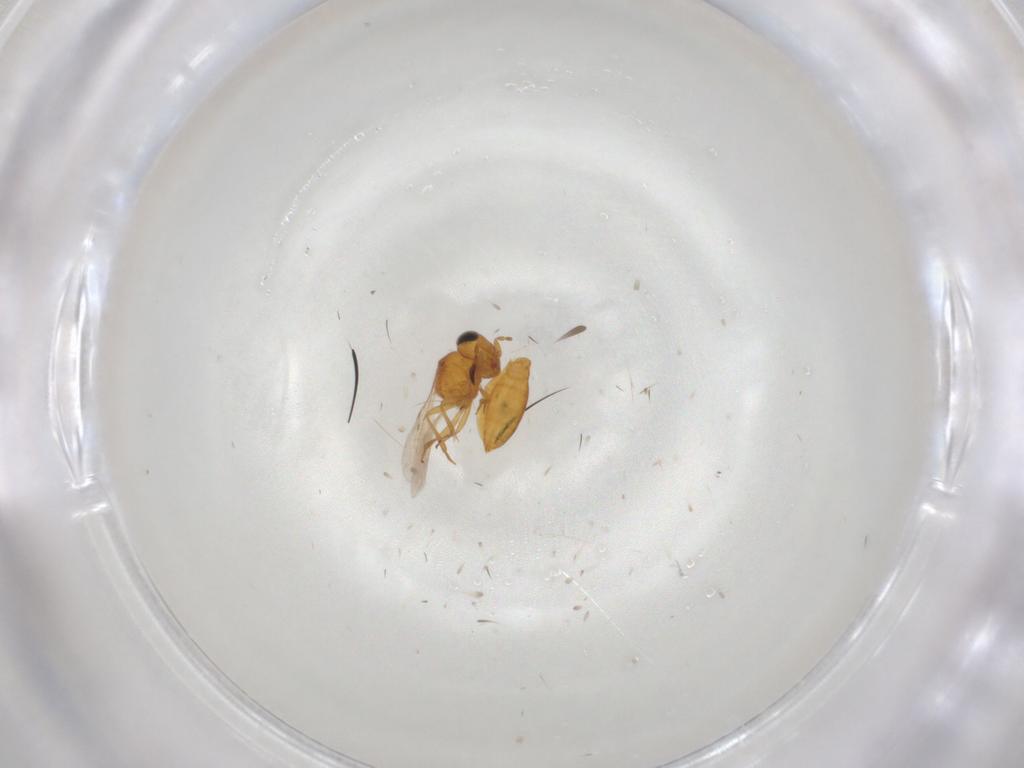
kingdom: Animalia
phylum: Arthropoda
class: Insecta
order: Hymenoptera
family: Scelionidae
